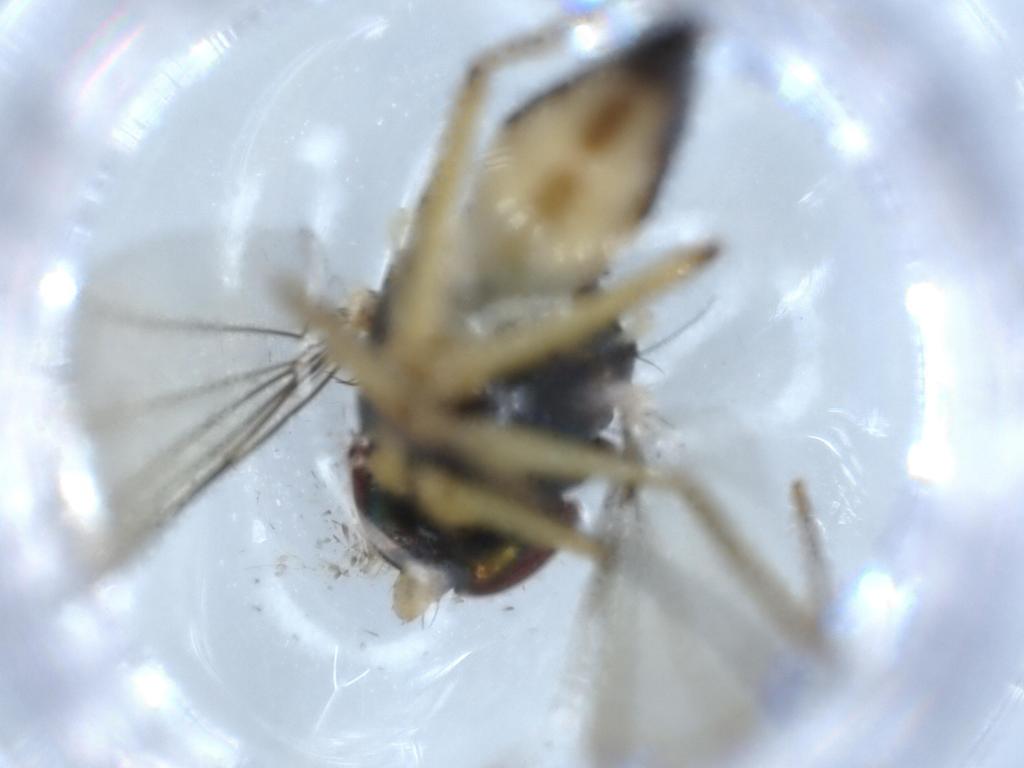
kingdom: Animalia
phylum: Arthropoda
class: Insecta
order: Diptera
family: Dolichopodidae
